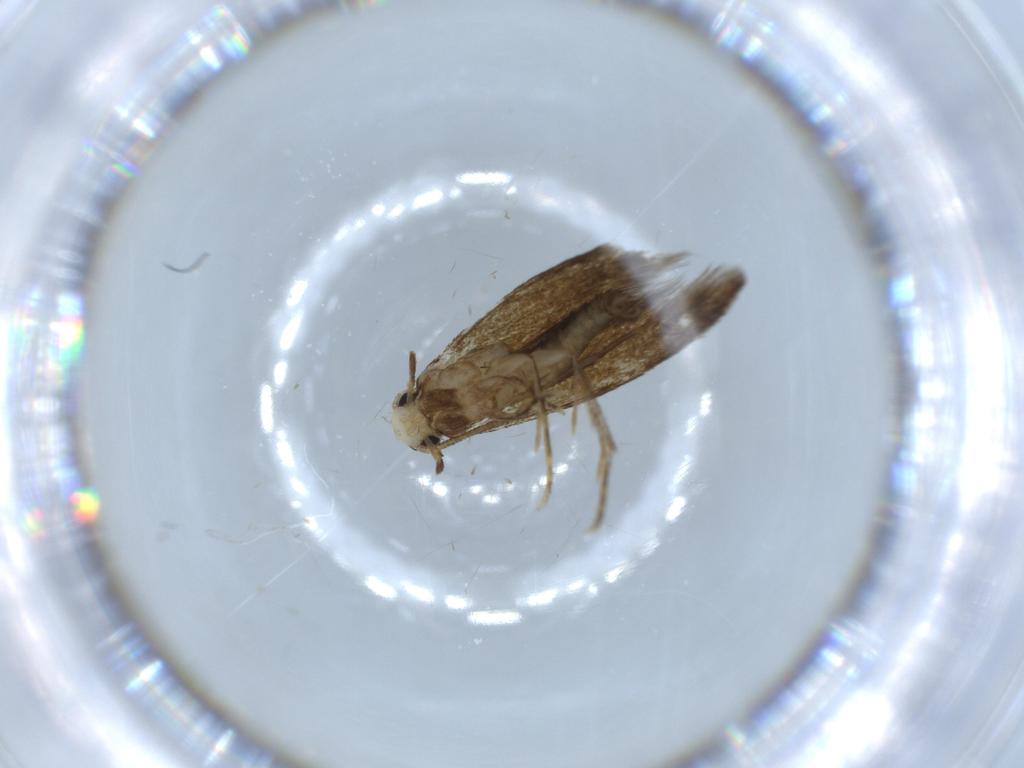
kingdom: Animalia
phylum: Arthropoda
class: Insecta
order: Lepidoptera
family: Tineidae
